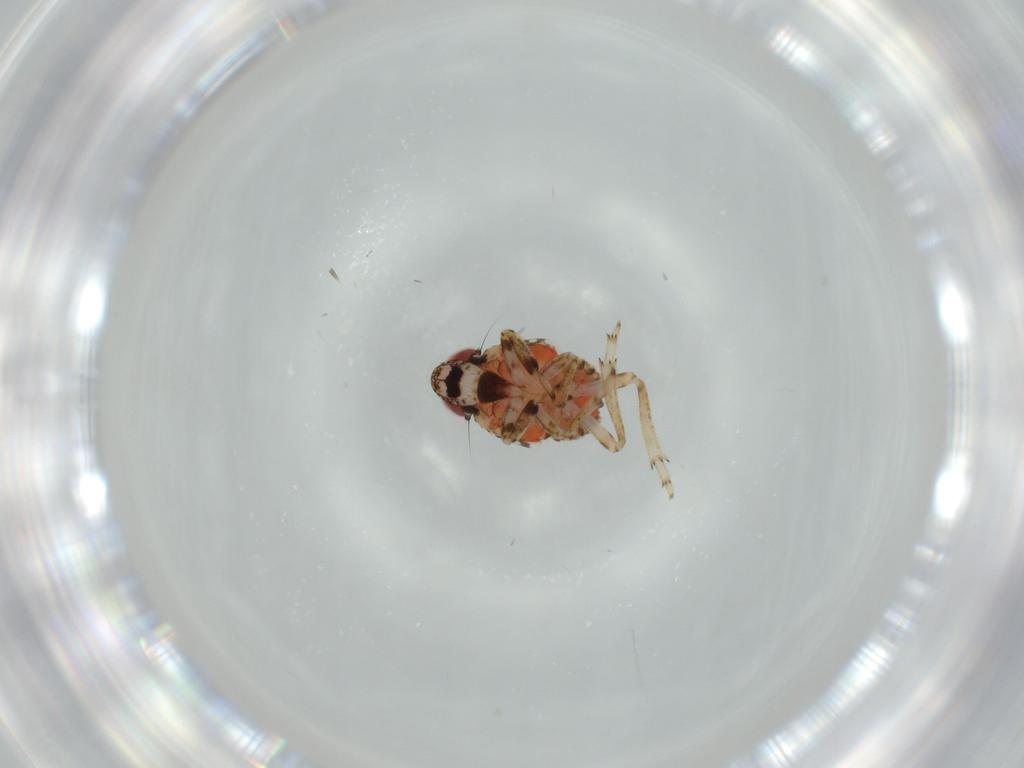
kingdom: Animalia
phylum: Arthropoda
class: Insecta
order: Hemiptera
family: Issidae
